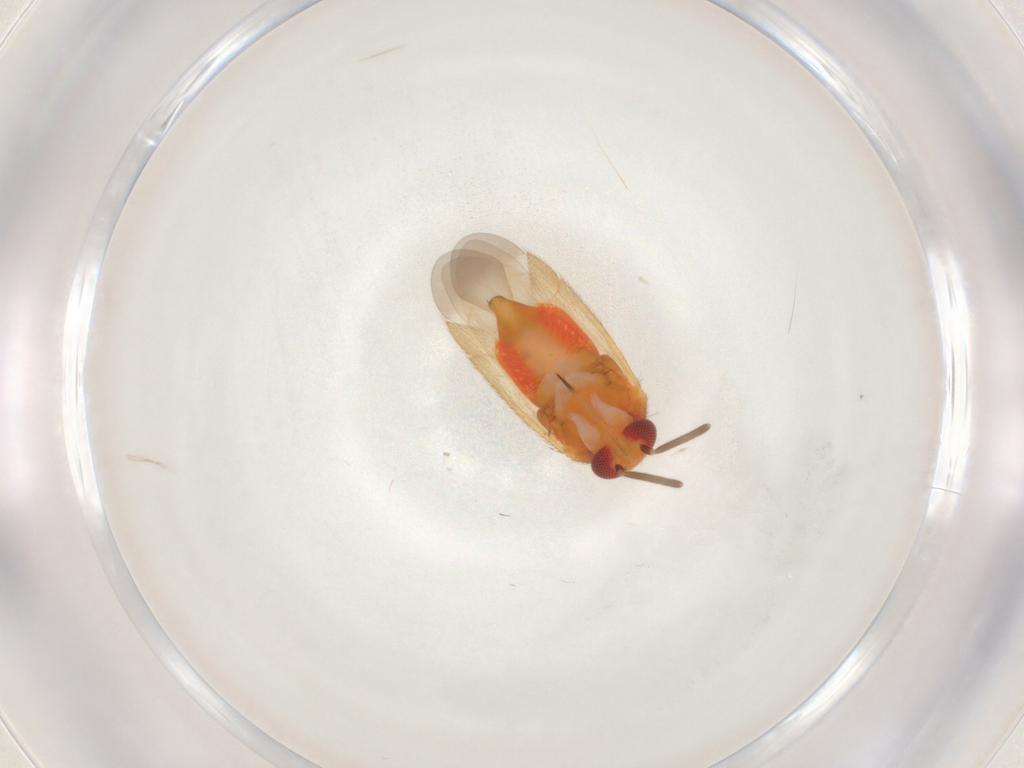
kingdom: Animalia
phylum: Arthropoda
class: Insecta
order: Hemiptera
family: Miridae
